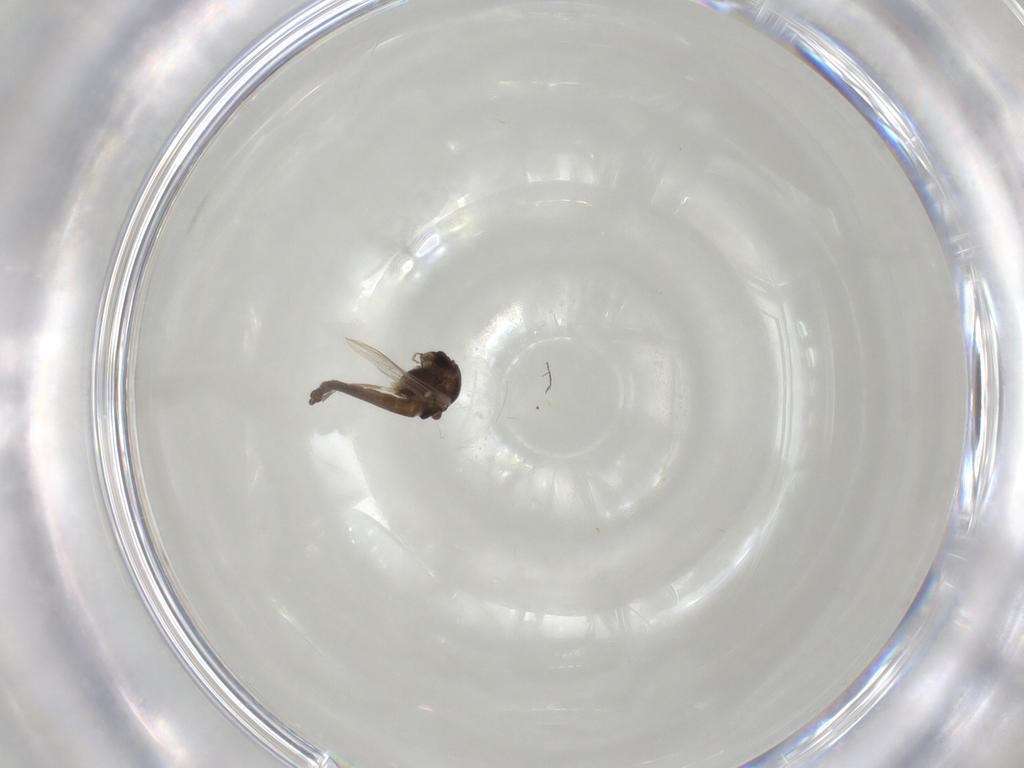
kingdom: Animalia
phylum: Arthropoda
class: Insecta
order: Diptera
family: Chironomidae
